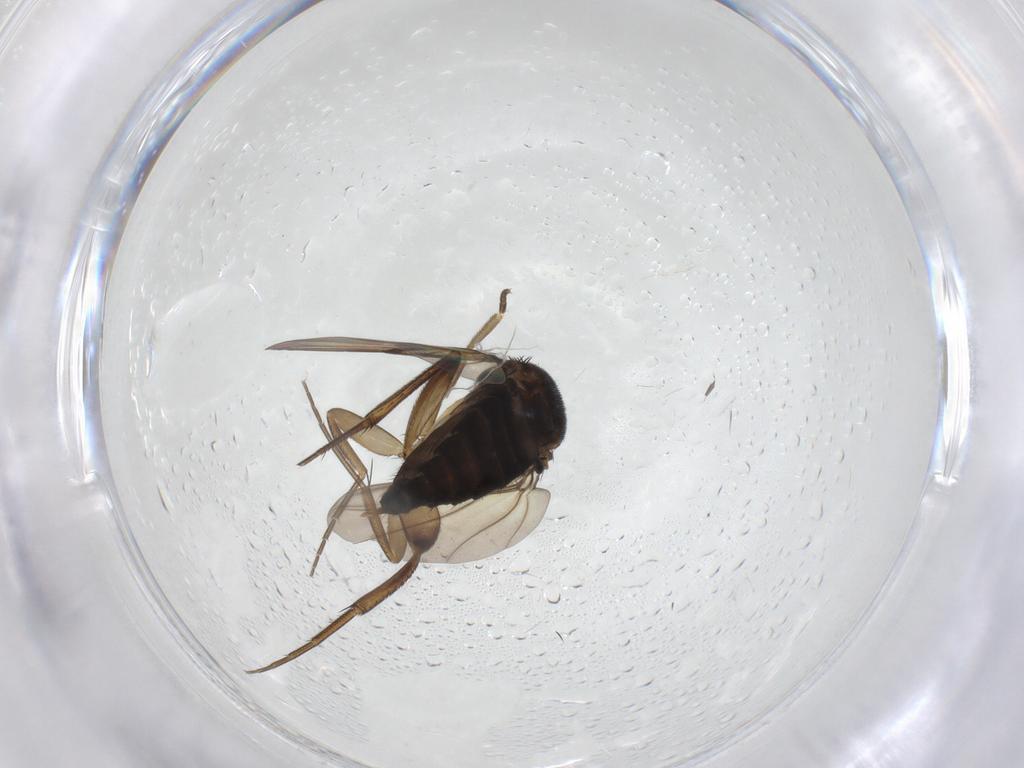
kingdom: Animalia
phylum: Arthropoda
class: Insecta
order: Diptera
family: Phoridae
